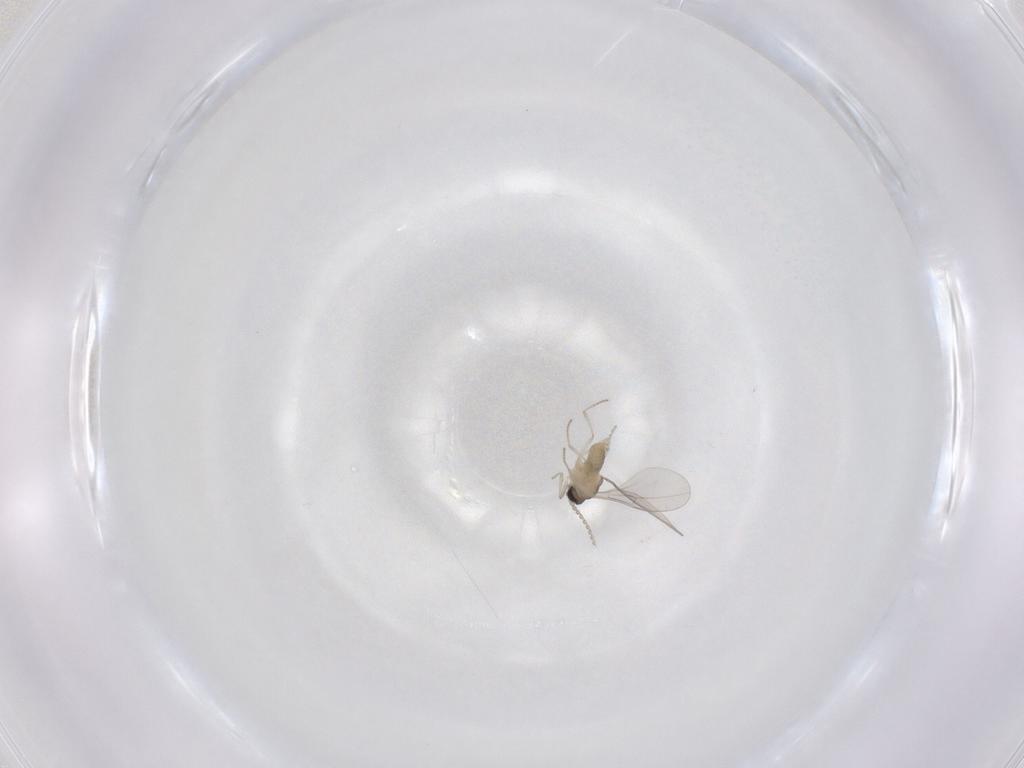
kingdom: Animalia
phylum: Arthropoda
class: Insecta
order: Diptera
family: Cecidomyiidae
